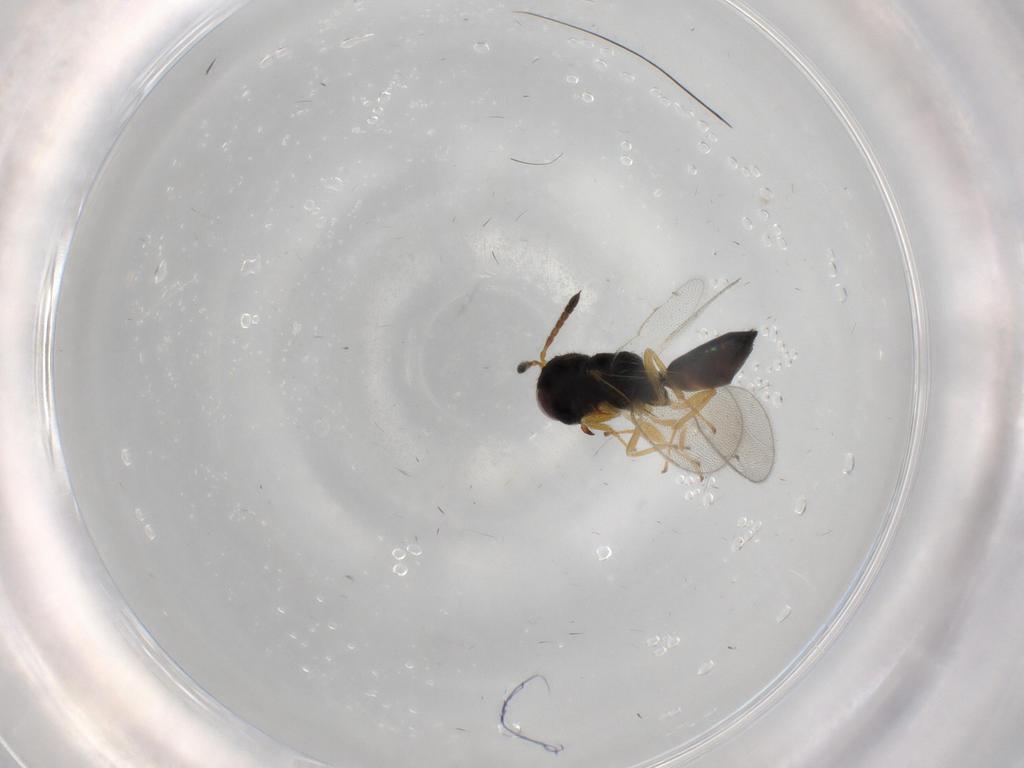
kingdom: Animalia
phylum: Arthropoda
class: Insecta
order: Hymenoptera
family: Eulophidae
